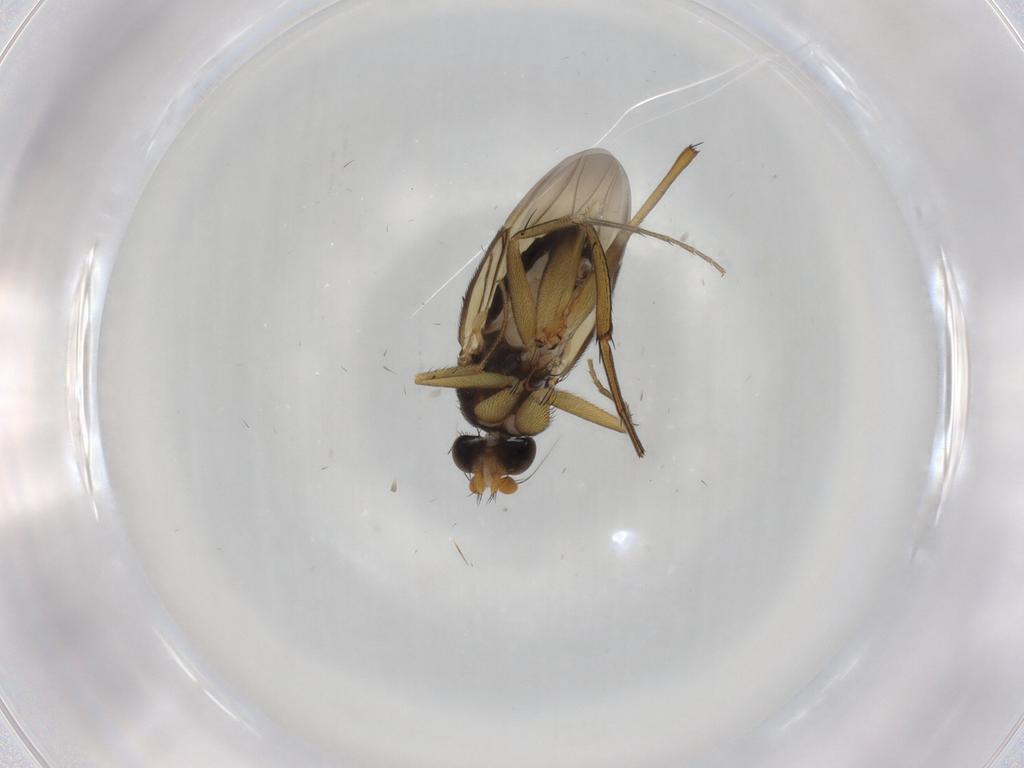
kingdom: Animalia
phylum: Arthropoda
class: Insecta
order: Diptera
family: Phoridae
